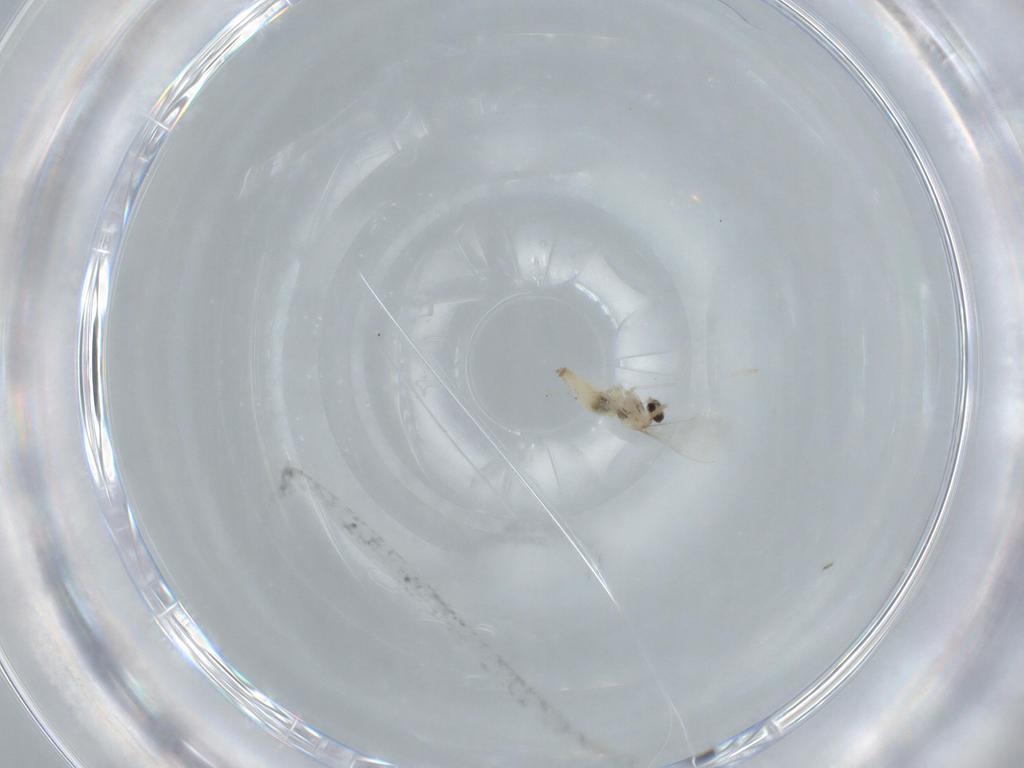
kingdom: Animalia
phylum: Arthropoda
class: Insecta
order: Diptera
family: Cecidomyiidae
